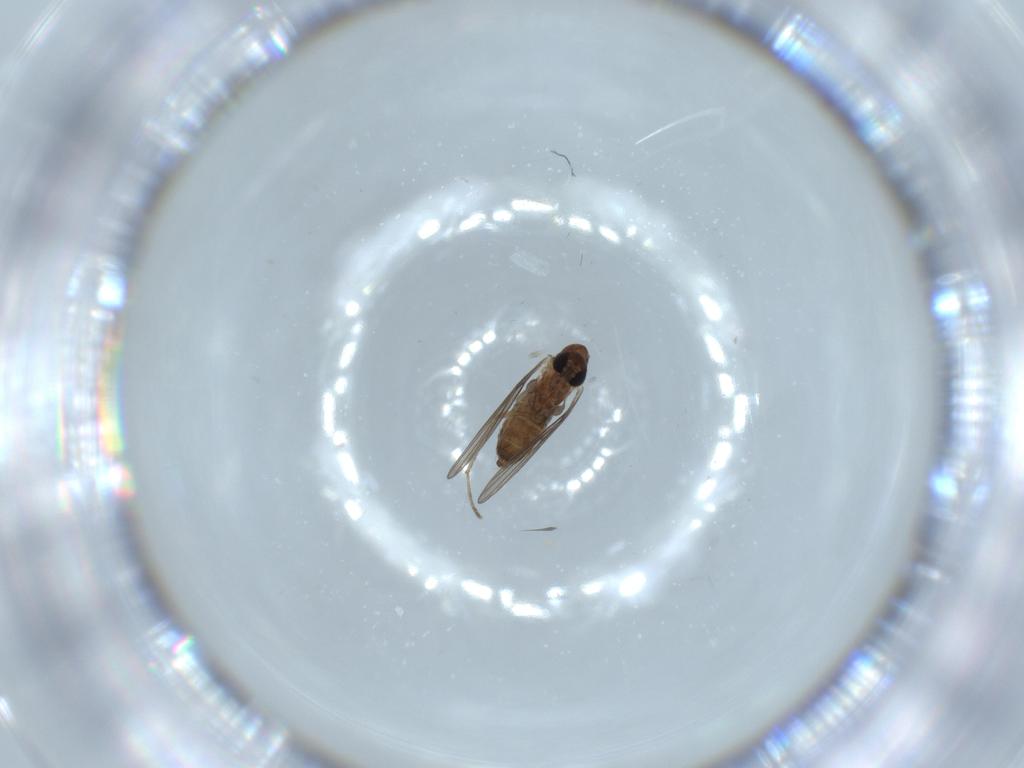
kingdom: Animalia
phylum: Arthropoda
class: Insecta
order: Diptera
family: Psychodidae
